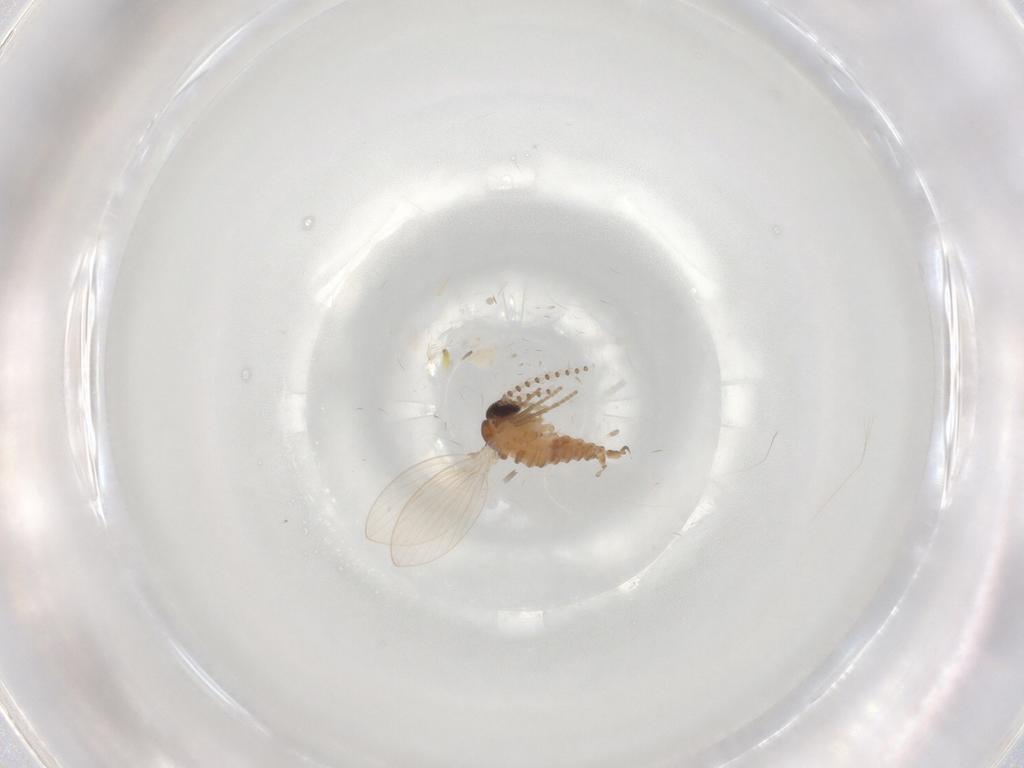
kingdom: Animalia
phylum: Arthropoda
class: Insecta
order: Diptera
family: Psychodidae
